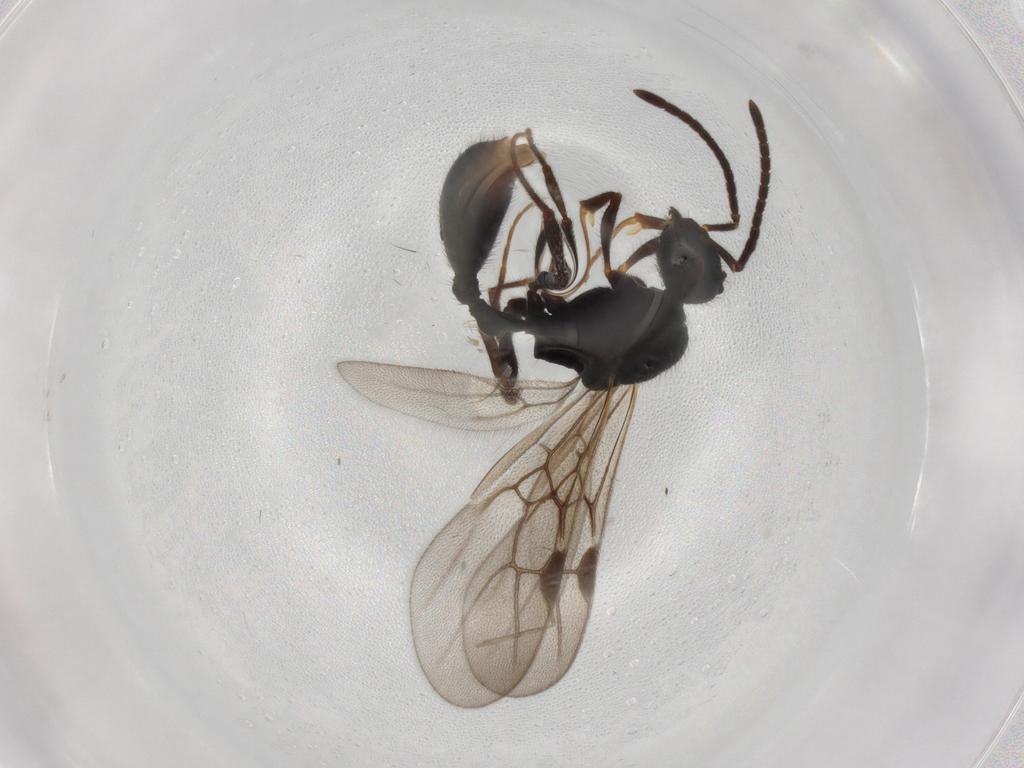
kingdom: Animalia
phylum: Arthropoda
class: Insecta
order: Hymenoptera
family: Formicidae
